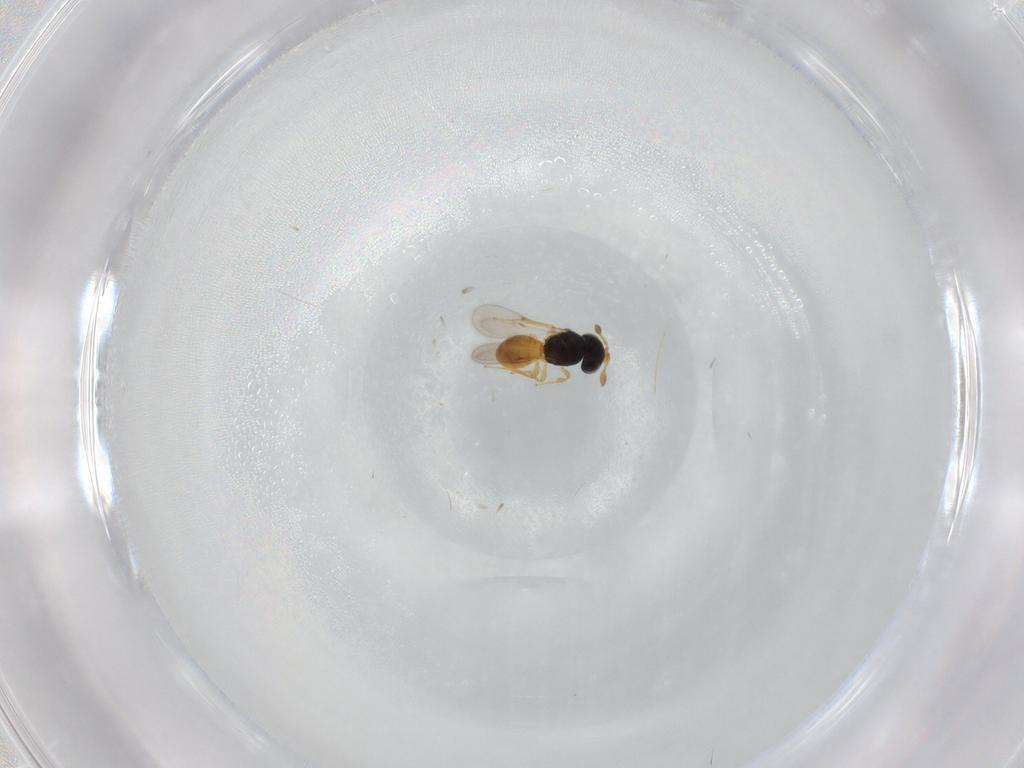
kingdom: Animalia
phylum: Arthropoda
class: Insecta
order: Hymenoptera
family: Scelionidae
